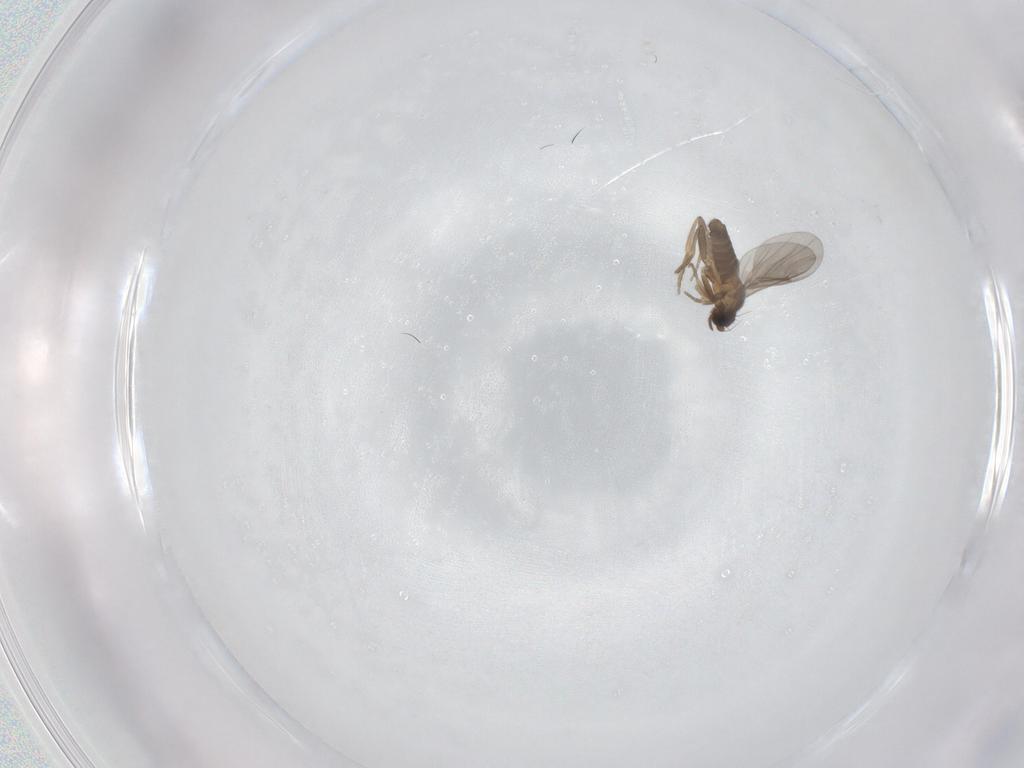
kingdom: Animalia
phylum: Arthropoda
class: Insecta
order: Diptera
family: Phoridae
